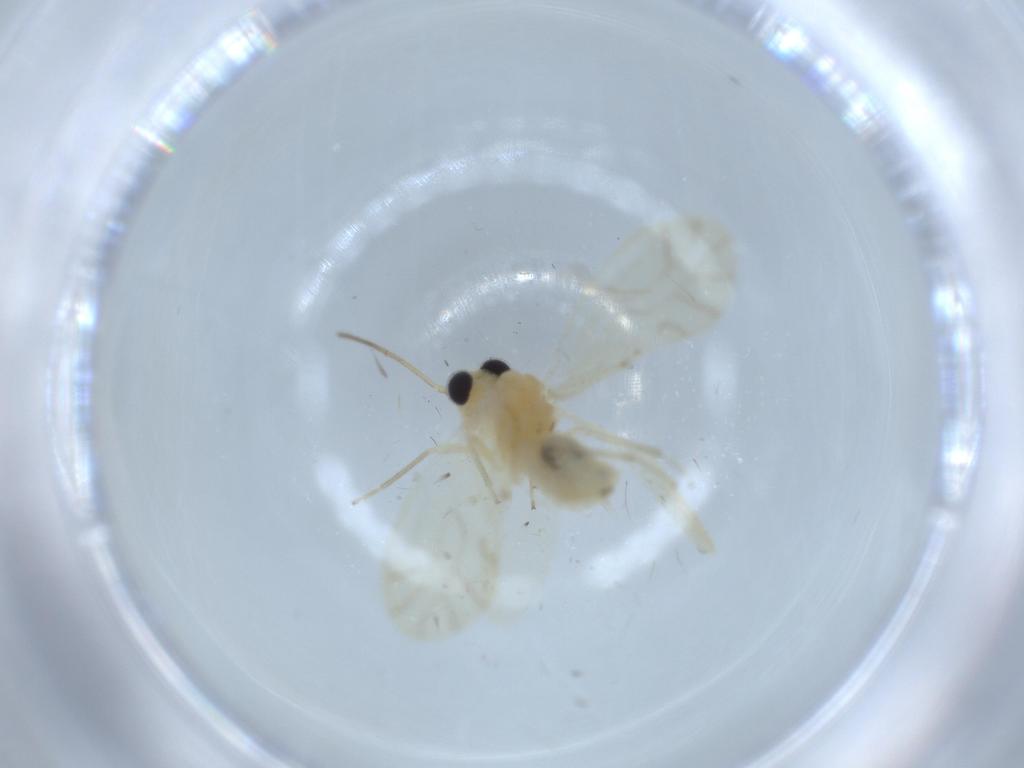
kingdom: Animalia
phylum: Arthropoda
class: Insecta
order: Psocodea
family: Caeciliusidae
